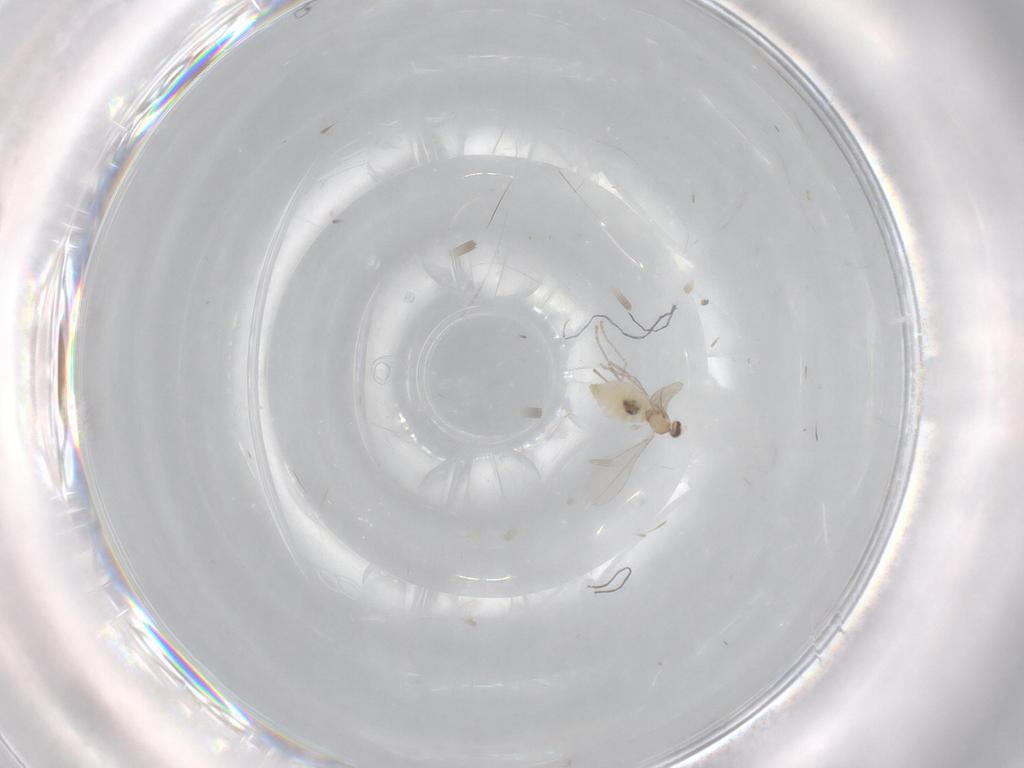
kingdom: Animalia
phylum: Arthropoda
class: Insecta
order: Diptera
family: Cecidomyiidae
